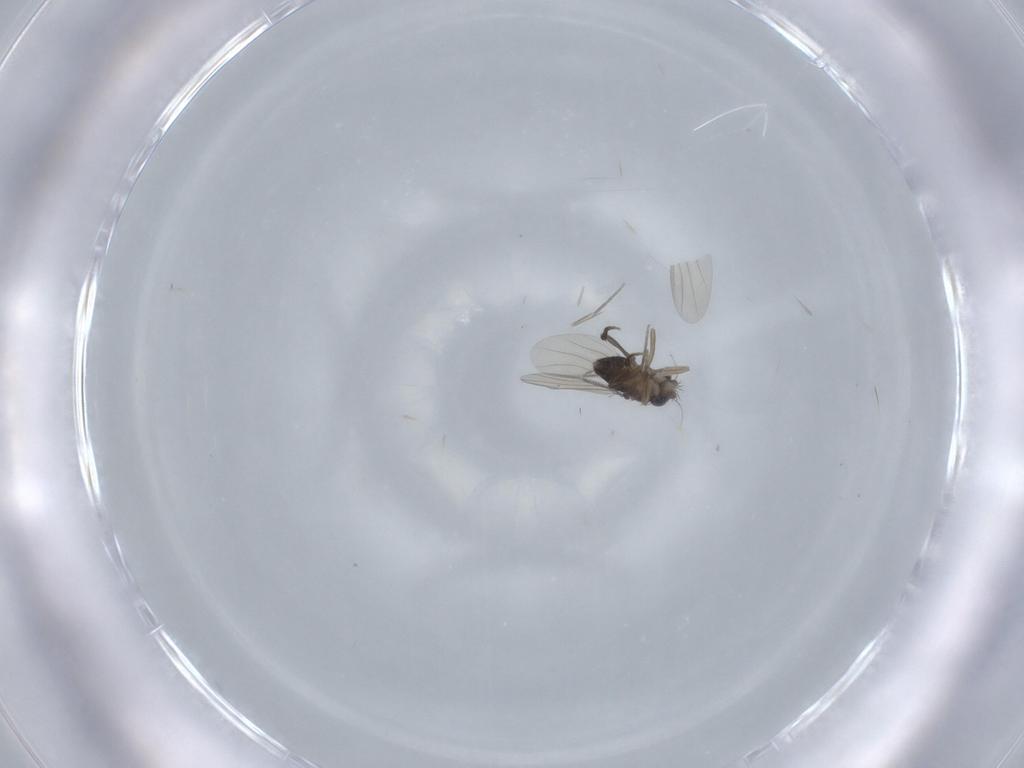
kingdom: Animalia
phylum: Arthropoda
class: Insecta
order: Diptera
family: Phoridae
